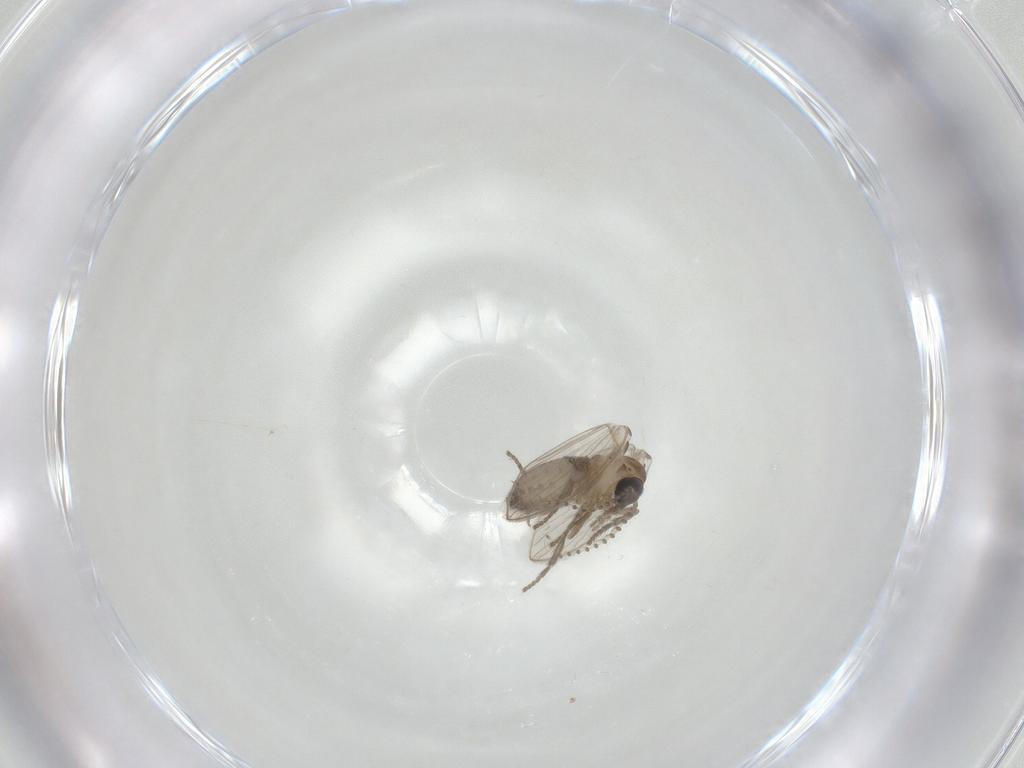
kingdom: Animalia
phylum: Arthropoda
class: Insecta
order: Diptera
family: Psychodidae
